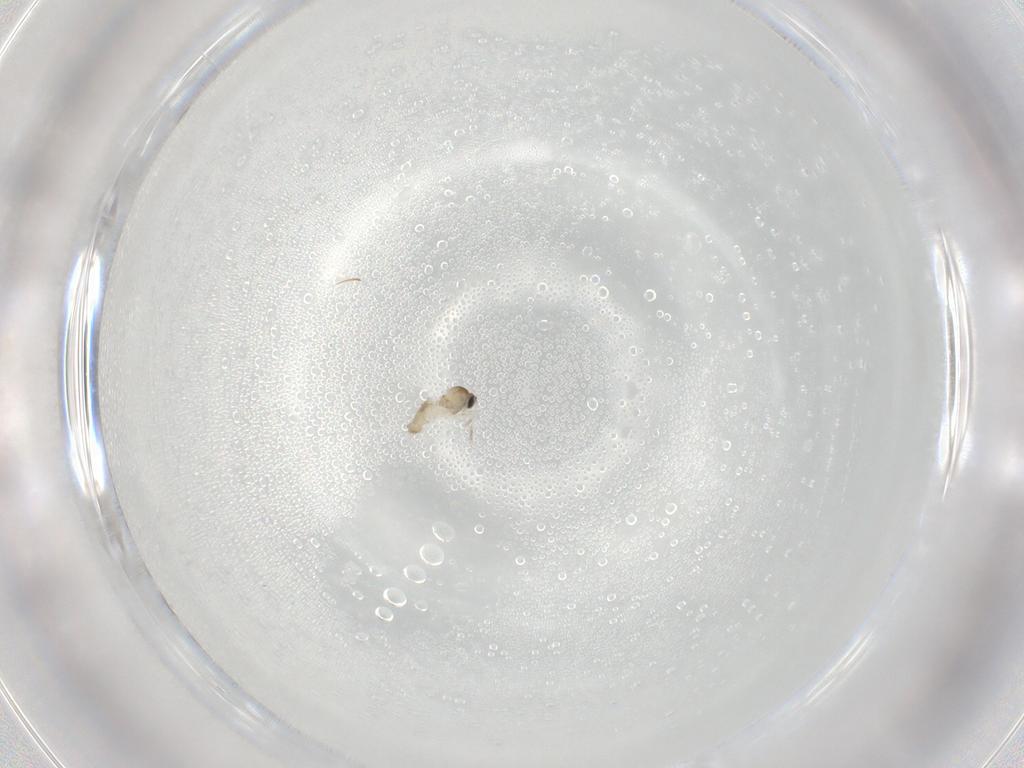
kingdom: Animalia
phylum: Arthropoda
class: Insecta
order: Diptera
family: Cecidomyiidae
